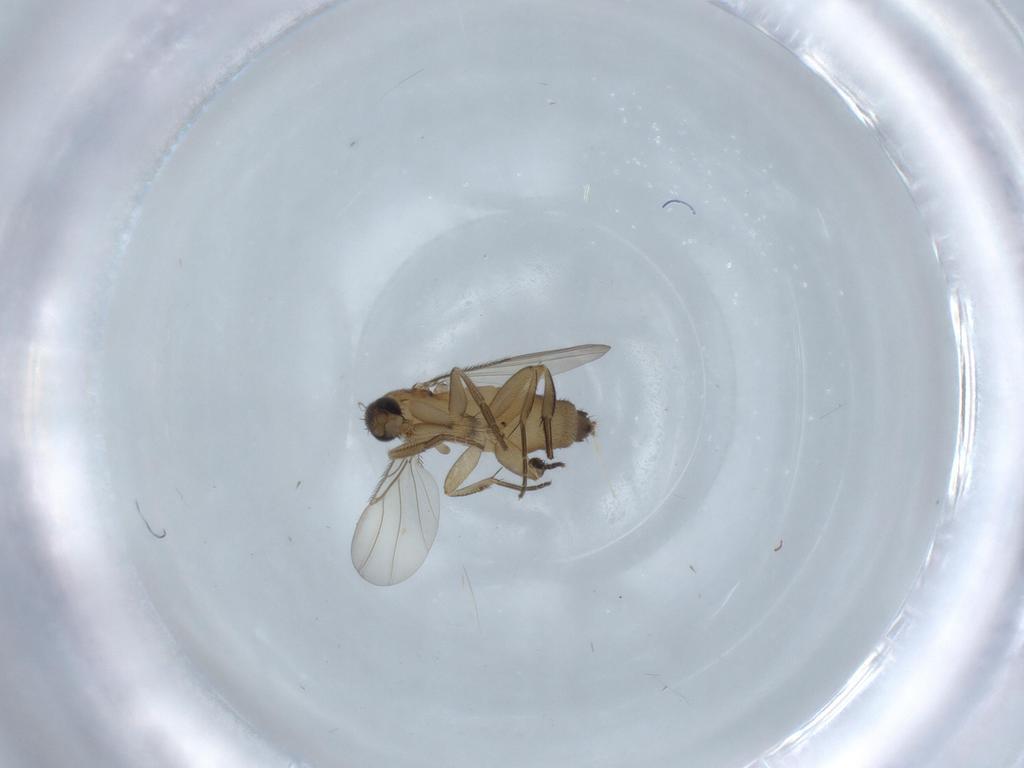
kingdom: Animalia
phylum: Arthropoda
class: Insecta
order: Diptera
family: Phoridae
